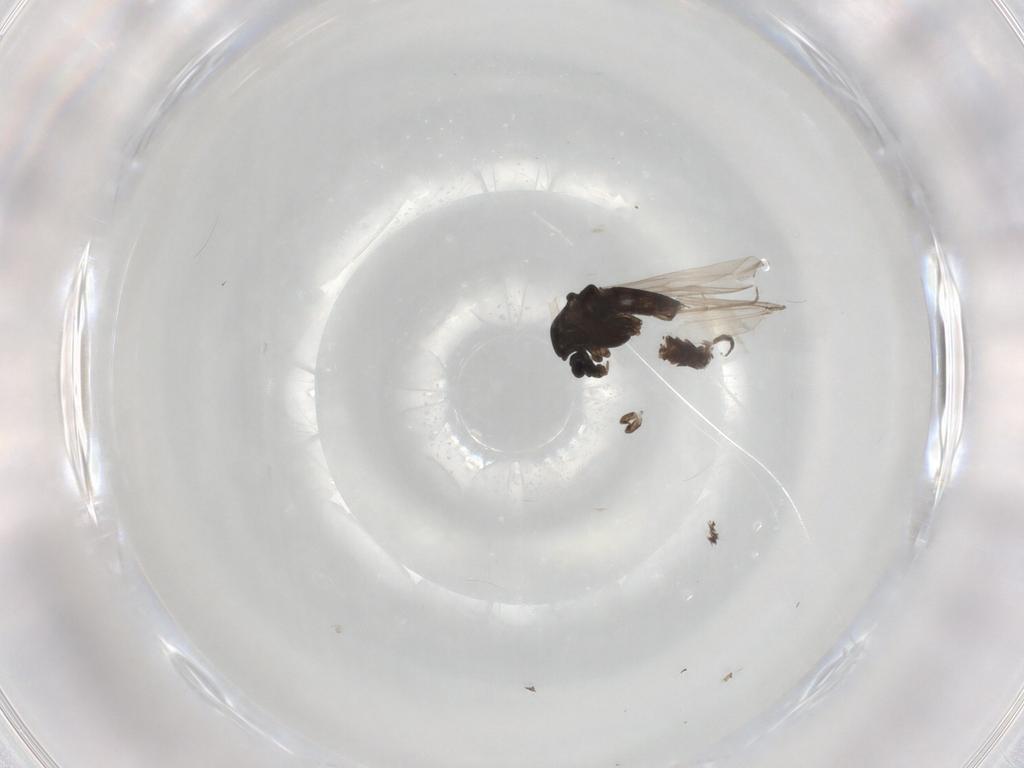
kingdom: Animalia
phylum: Arthropoda
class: Insecta
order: Diptera
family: Chironomidae
